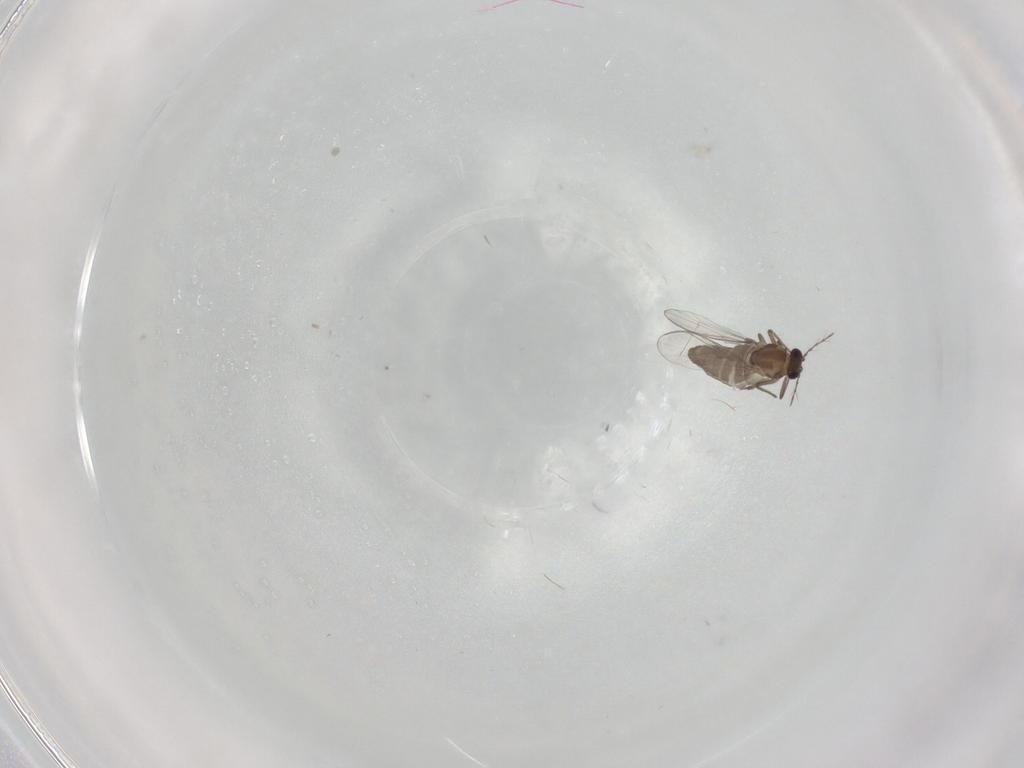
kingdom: Animalia
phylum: Arthropoda
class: Insecta
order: Diptera
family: Chironomidae
